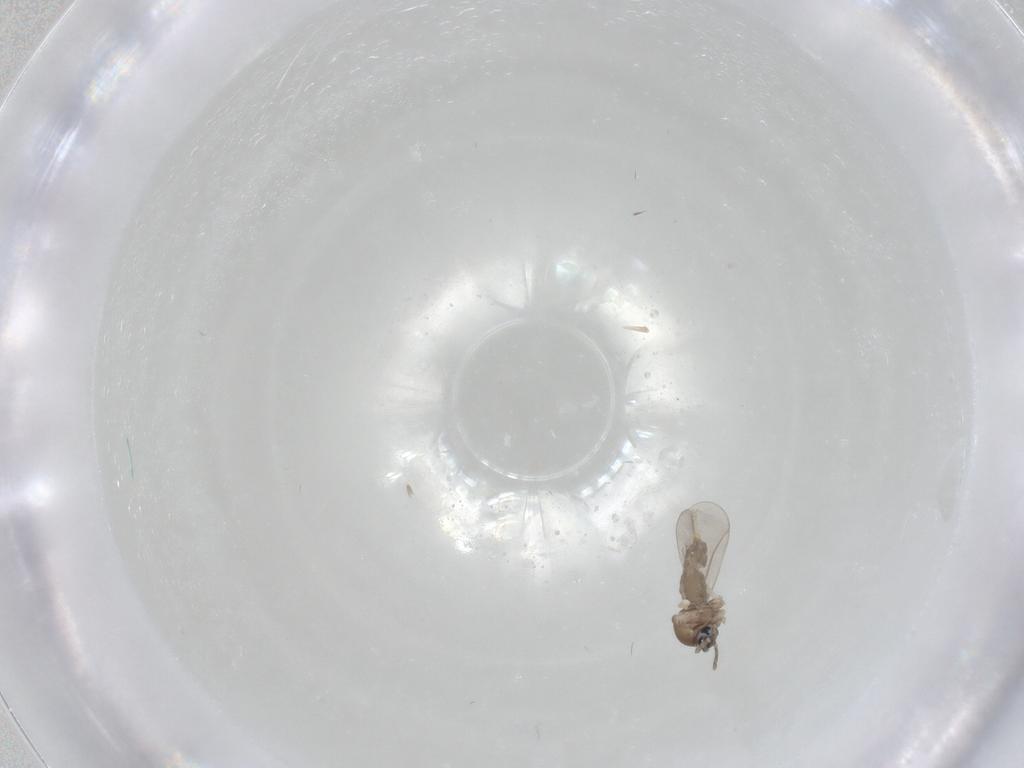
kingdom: Animalia
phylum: Arthropoda
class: Insecta
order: Diptera
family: Cecidomyiidae
